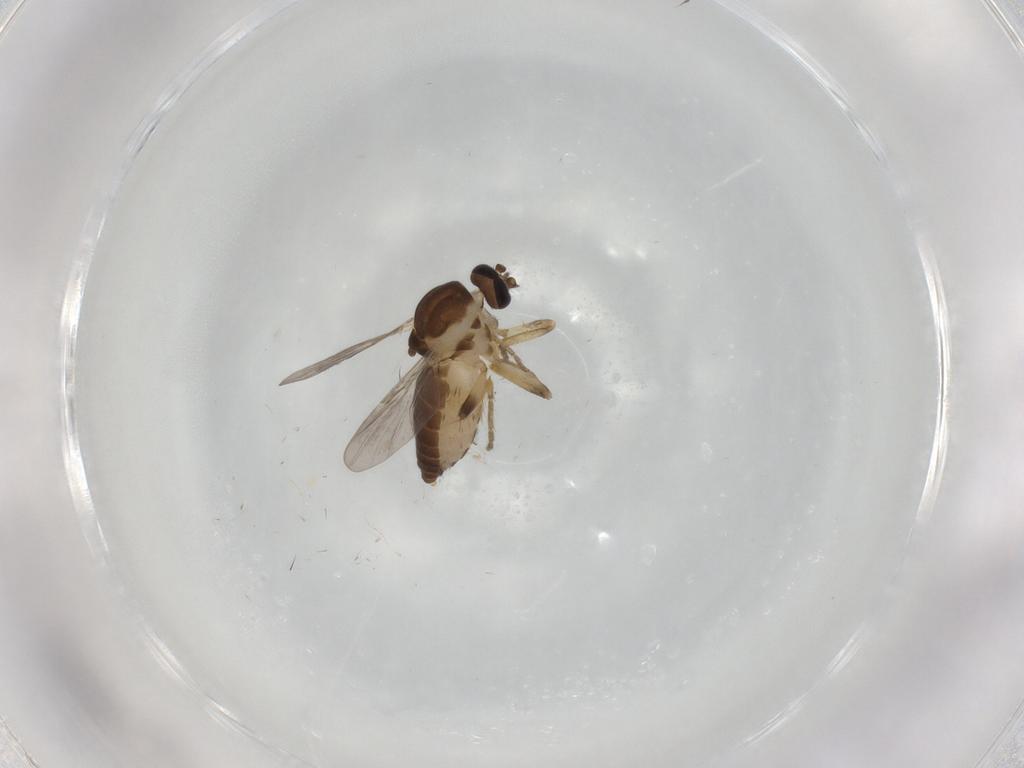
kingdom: Animalia
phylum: Arthropoda
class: Insecta
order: Diptera
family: Ceratopogonidae
